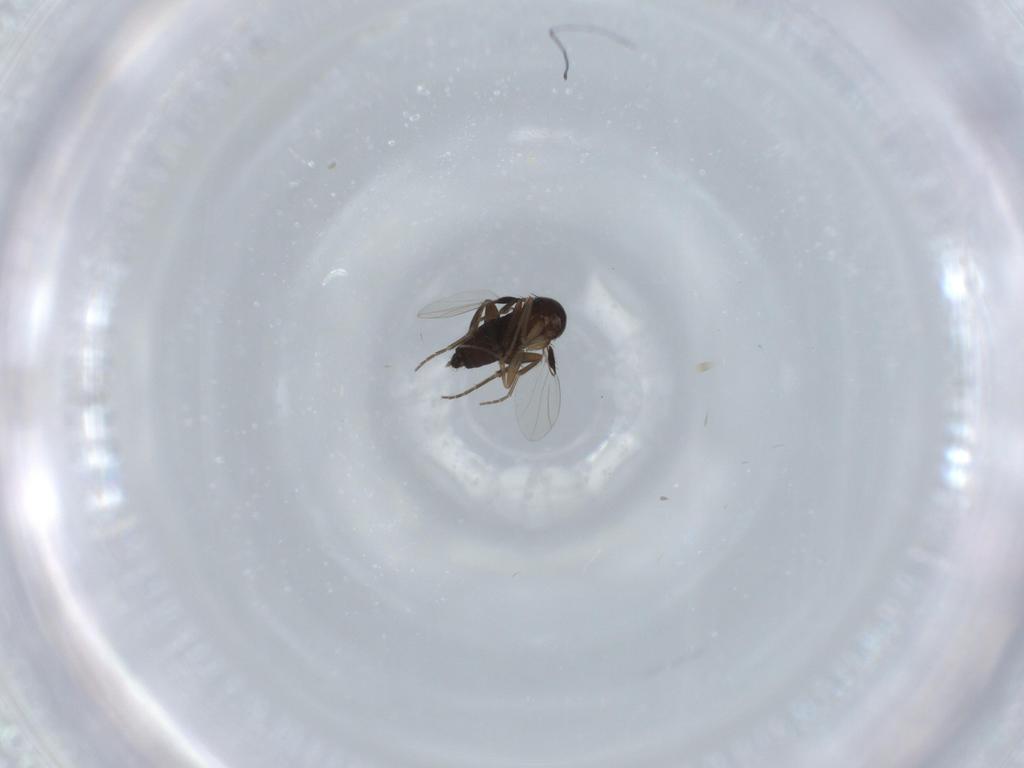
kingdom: Animalia
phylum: Arthropoda
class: Insecta
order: Diptera
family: Phoridae
